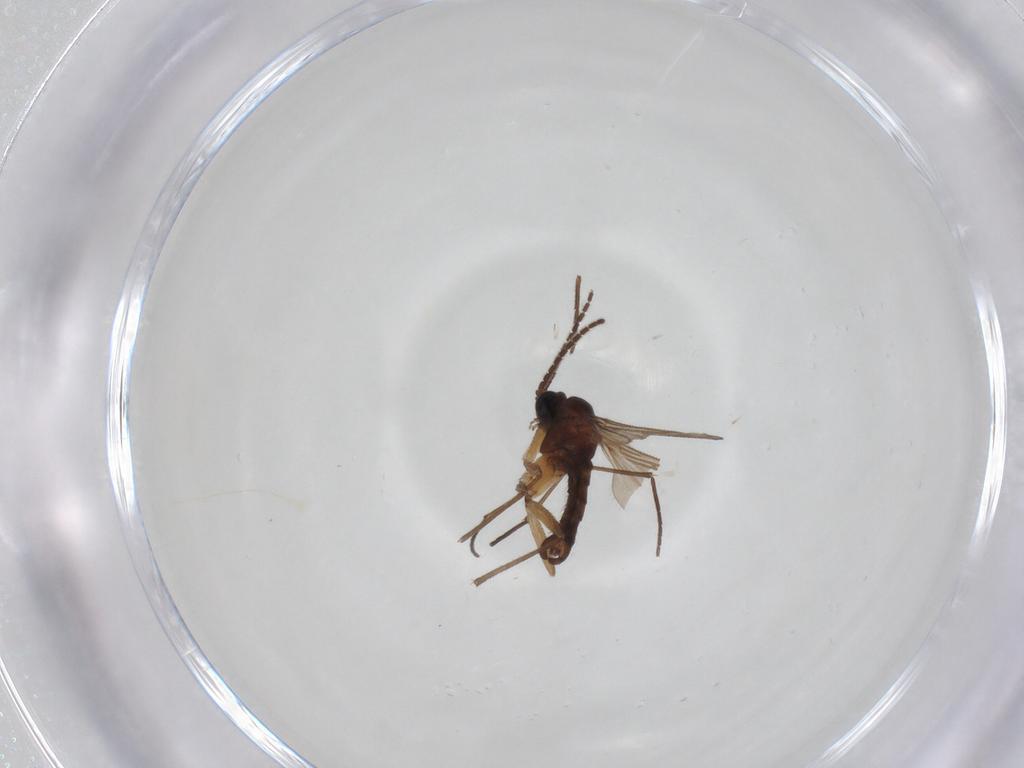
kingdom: Animalia
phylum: Arthropoda
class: Insecta
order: Diptera
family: Sciaridae
